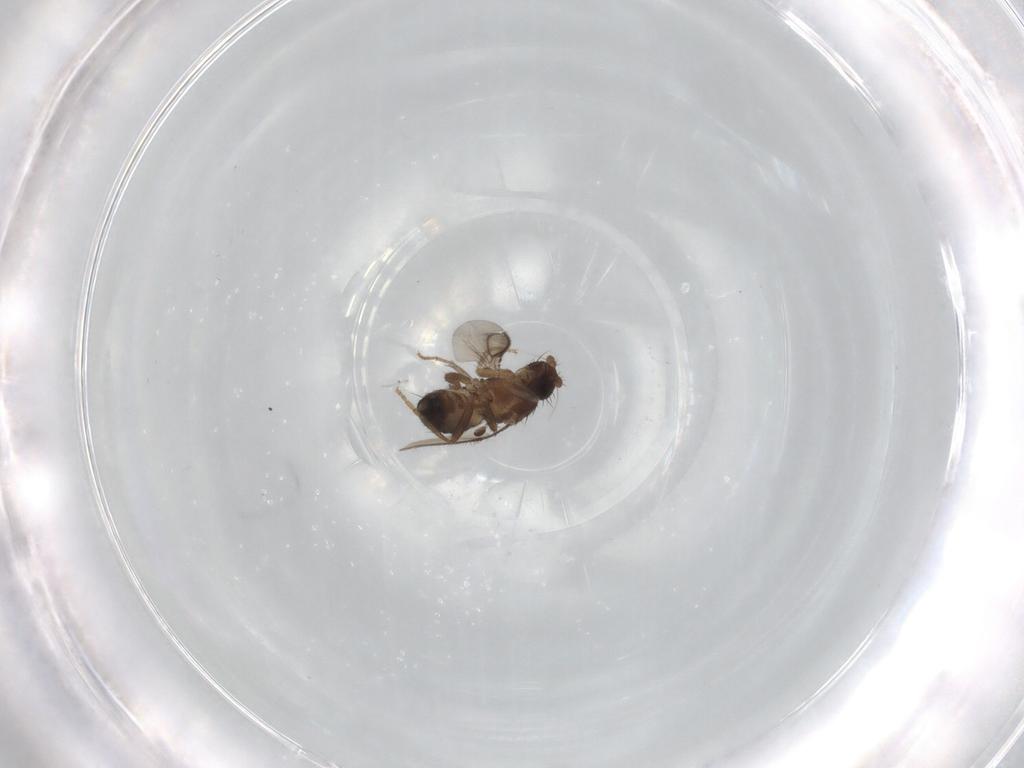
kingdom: Animalia
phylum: Arthropoda
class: Insecta
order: Diptera
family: Sphaeroceridae
